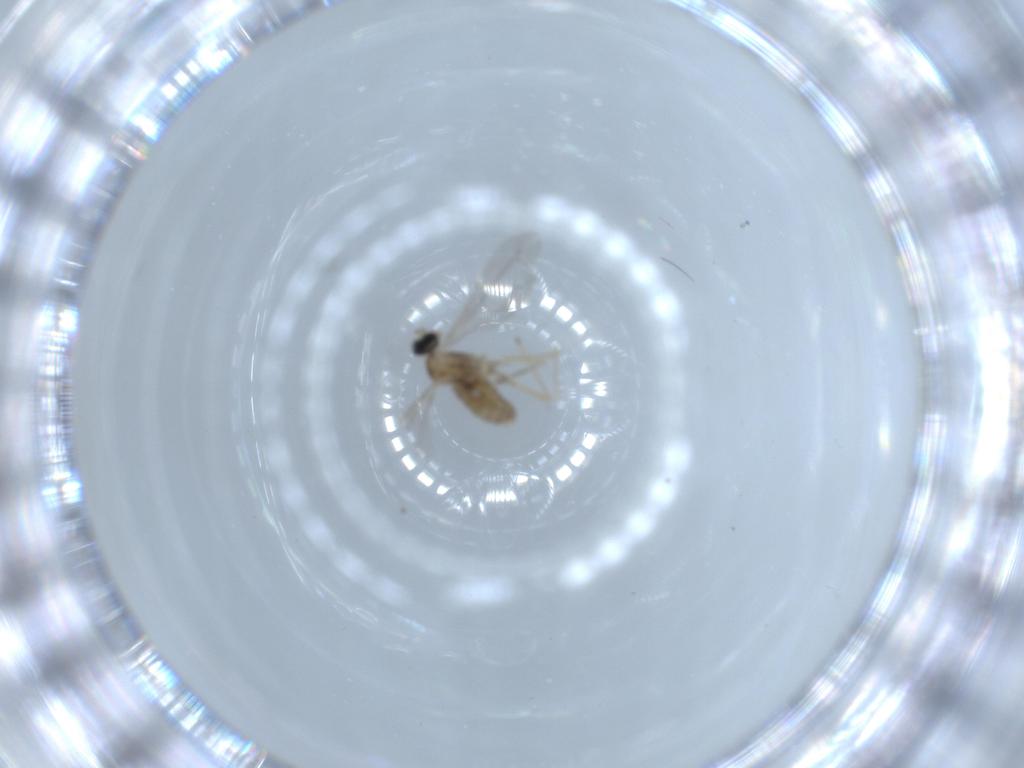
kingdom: Animalia
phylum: Arthropoda
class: Insecta
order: Diptera
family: Cecidomyiidae
